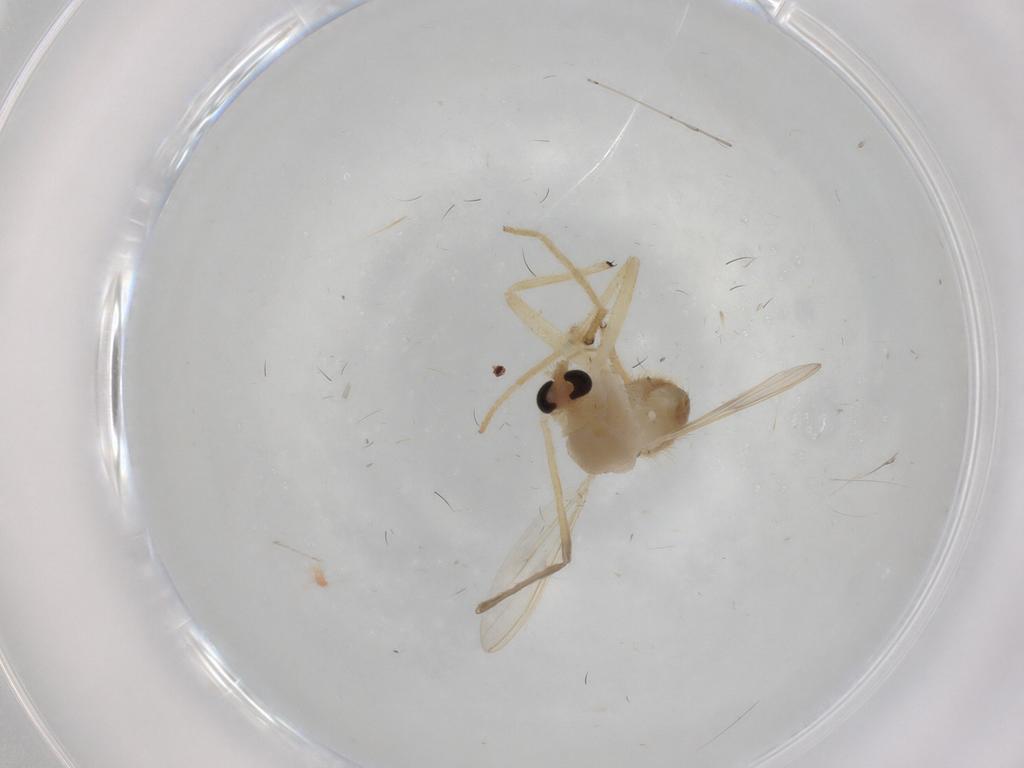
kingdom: Animalia
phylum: Arthropoda
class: Insecta
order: Diptera
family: Chironomidae
